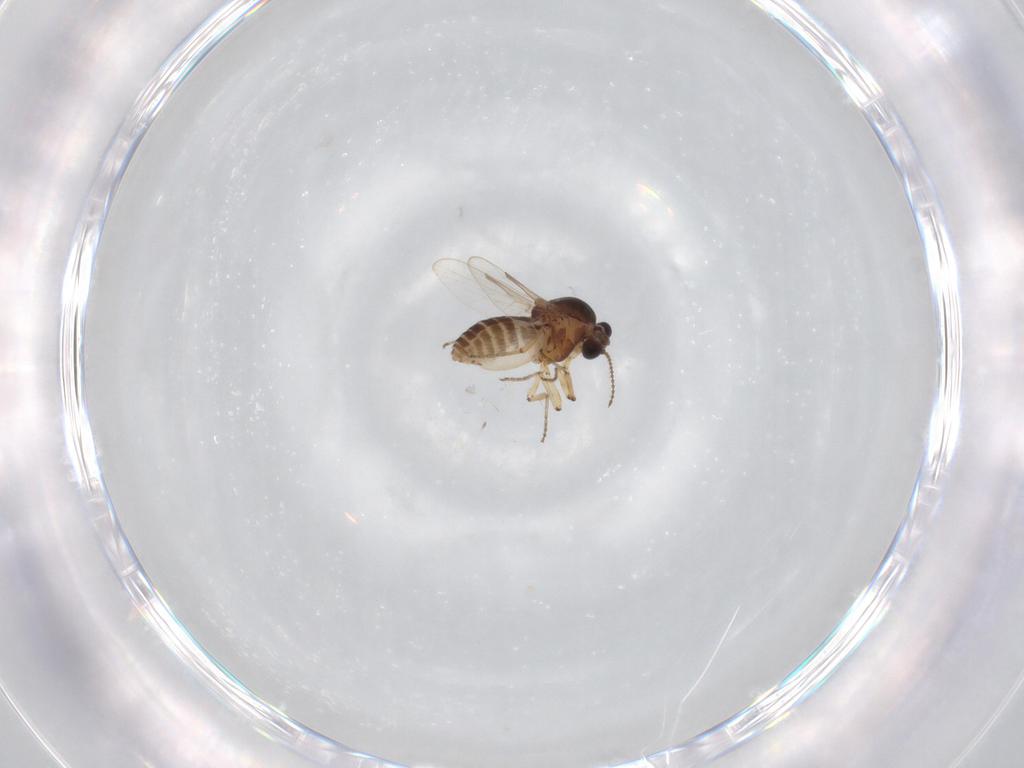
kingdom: Animalia
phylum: Arthropoda
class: Insecta
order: Diptera
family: Ceratopogonidae
